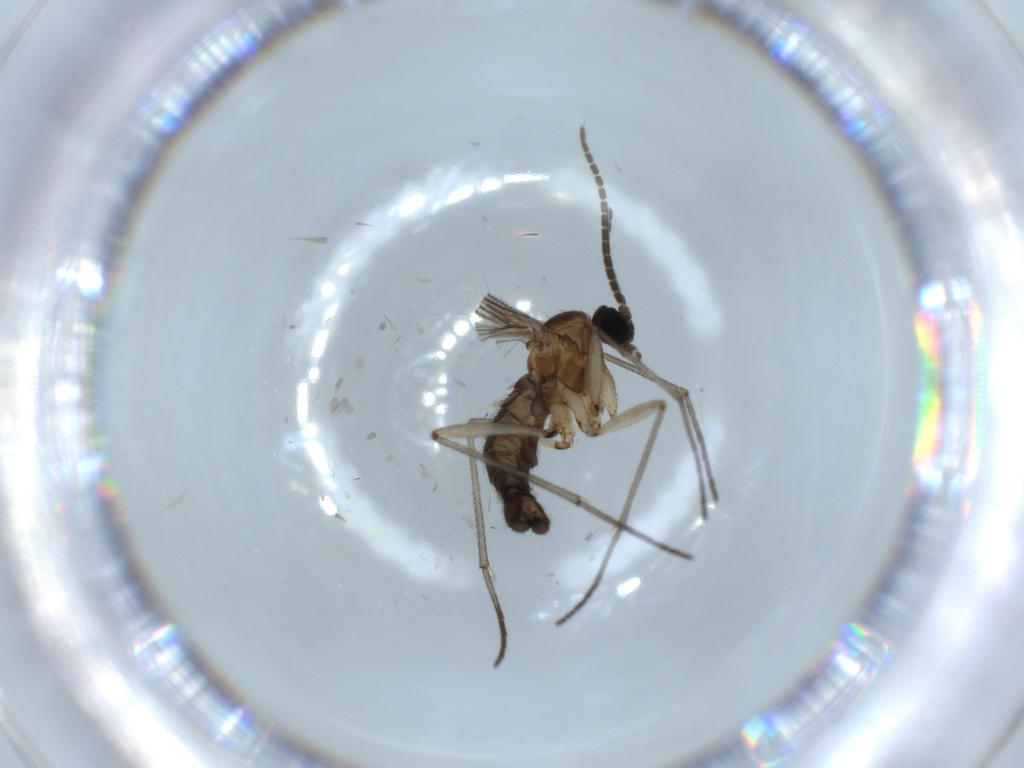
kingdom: Animalia
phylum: Arthropoda
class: Insecta
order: Diptera
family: Sciaridae
